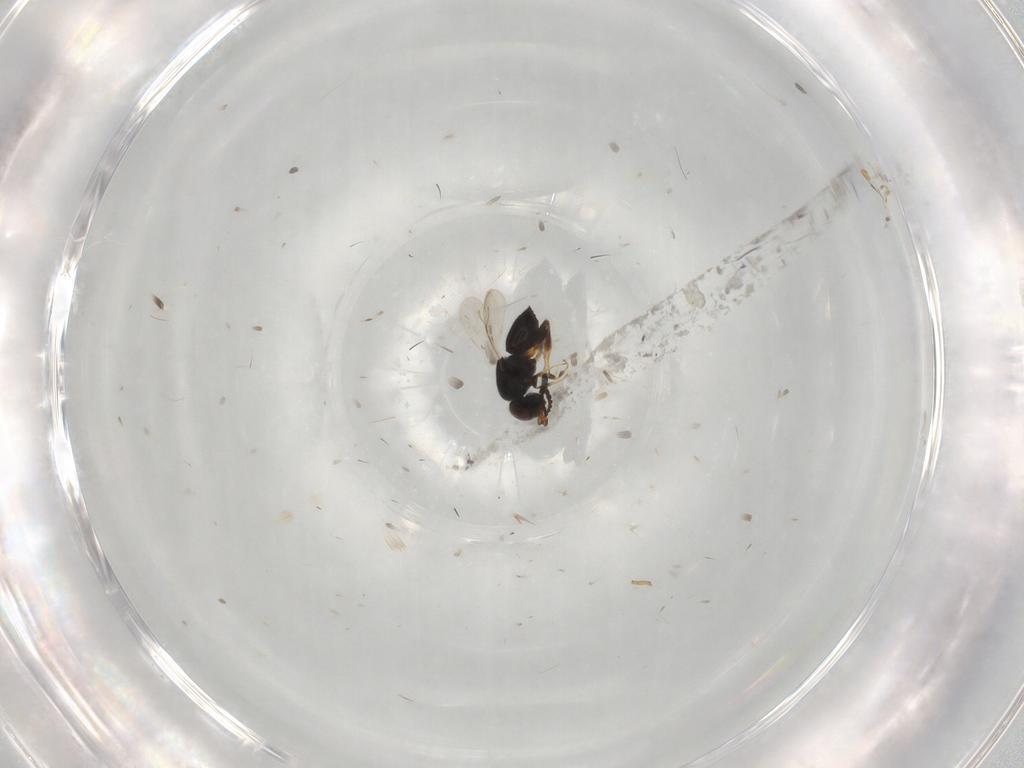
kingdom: Animalia
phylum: Arthropoda
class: Insecta
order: Hymenoptera
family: Ceraphronidae
